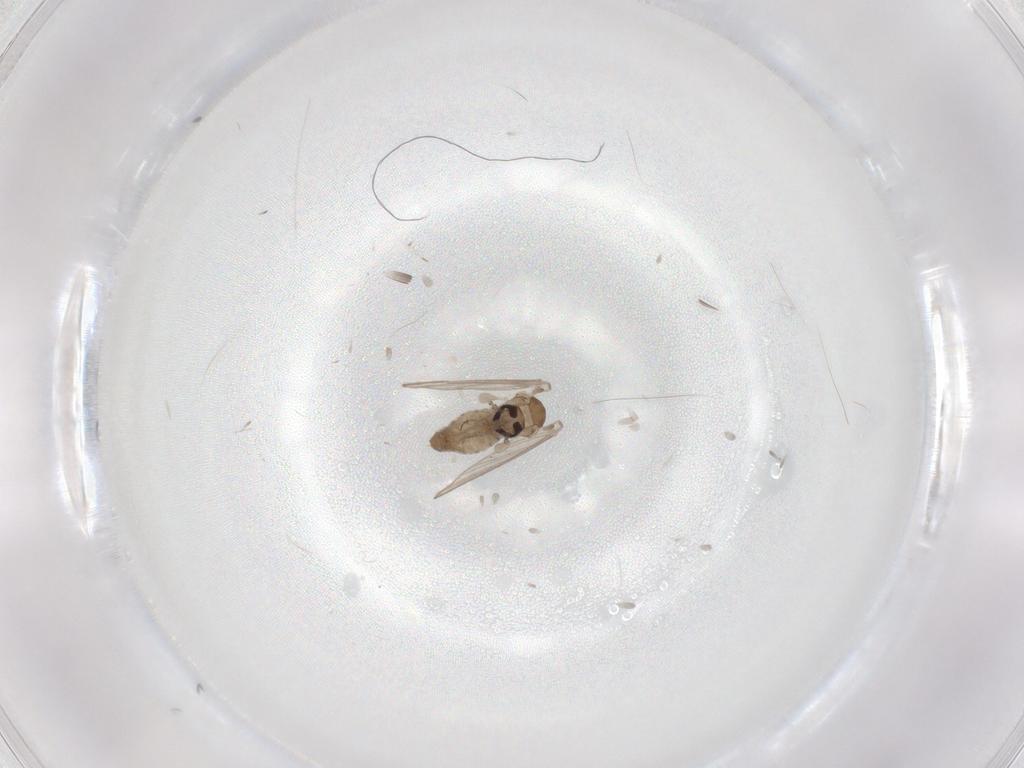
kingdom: Animalia
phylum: Arthropoda
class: Insecta
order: Diptera
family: Psychodidae
